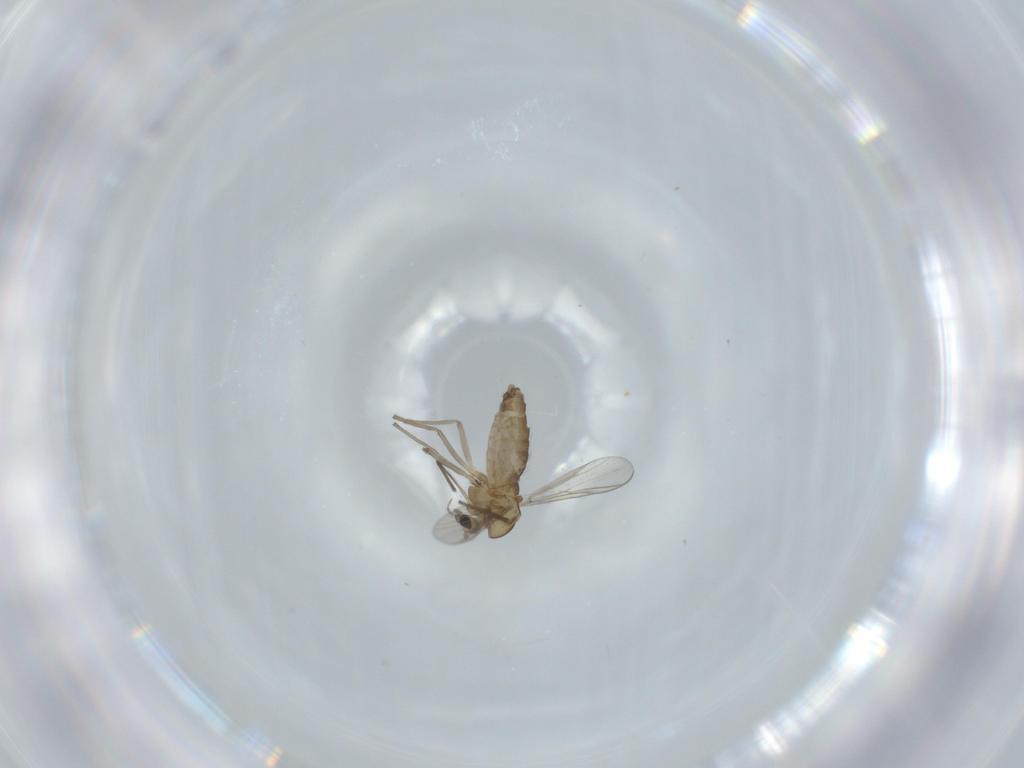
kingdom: Animalia
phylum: Arthropoda
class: Insecta
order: Diptera
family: Chironomidae
